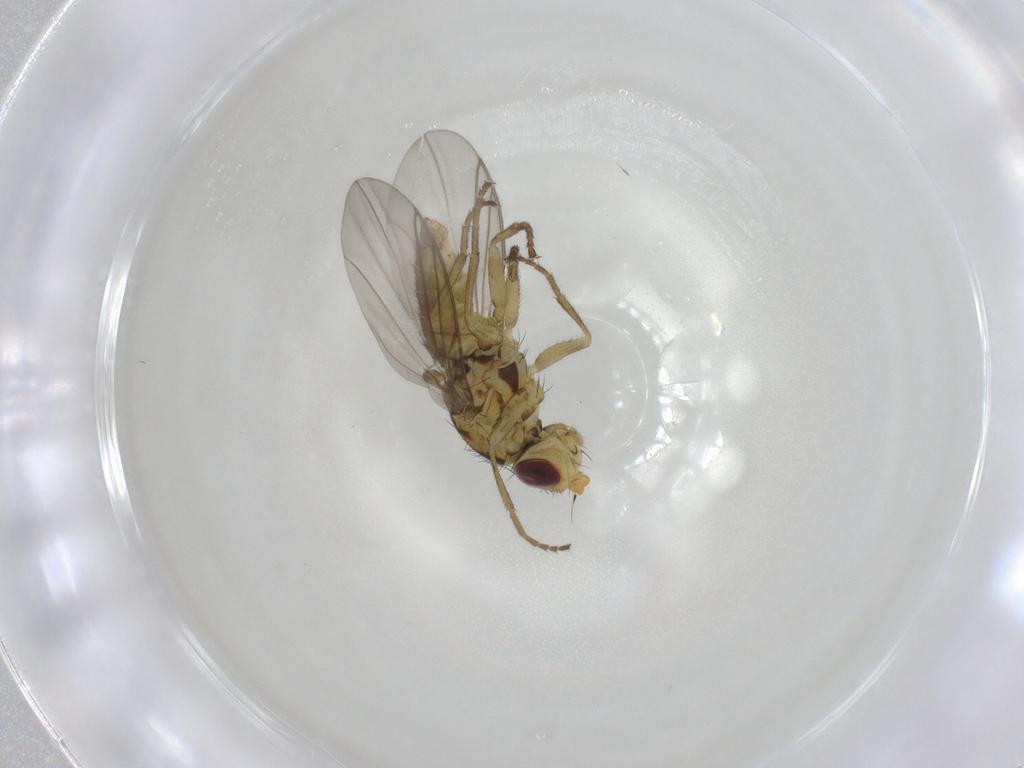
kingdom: Animalia
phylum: Arthropoda
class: Insecta
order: Diptera
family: Agromyzidae
